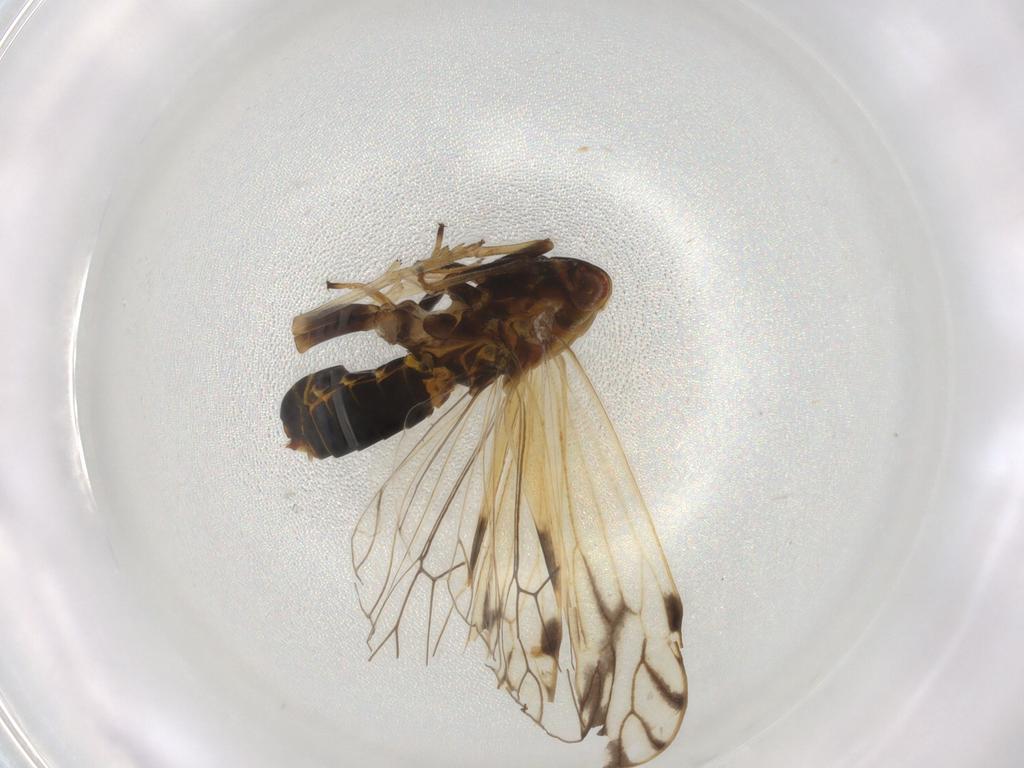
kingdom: Animalia
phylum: Arthropoda
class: Insecta
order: Hemiptera
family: Delphacidae
